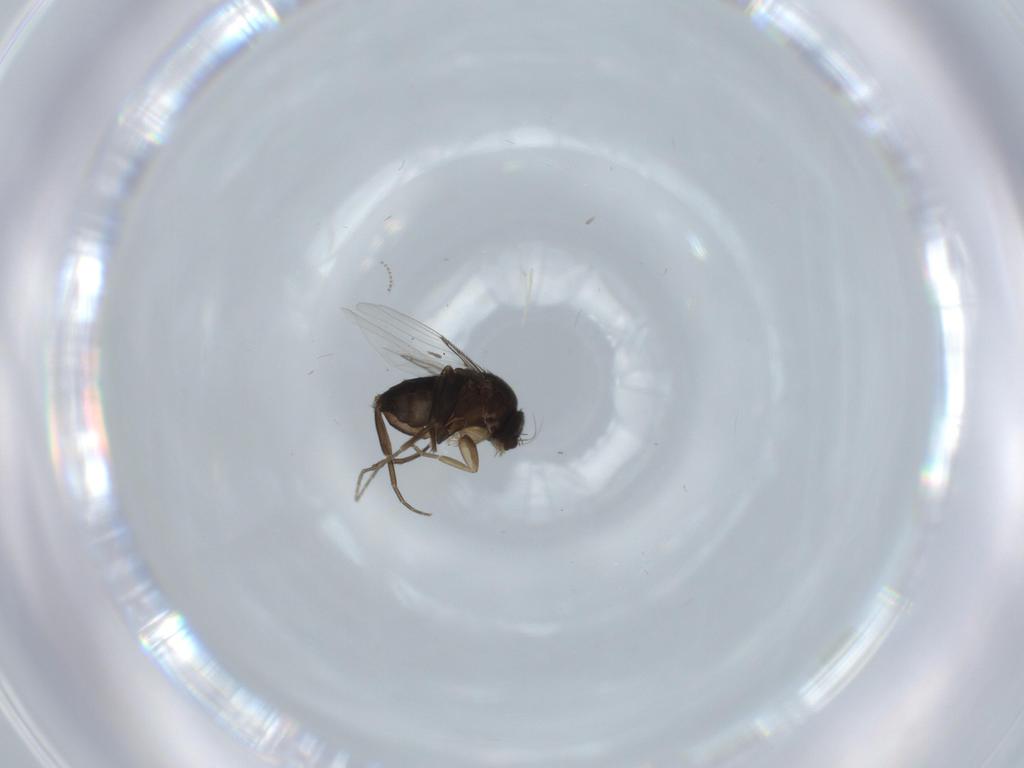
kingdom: Animalia
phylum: Arthropoda
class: Insecta
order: Diptera
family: Phoridae
